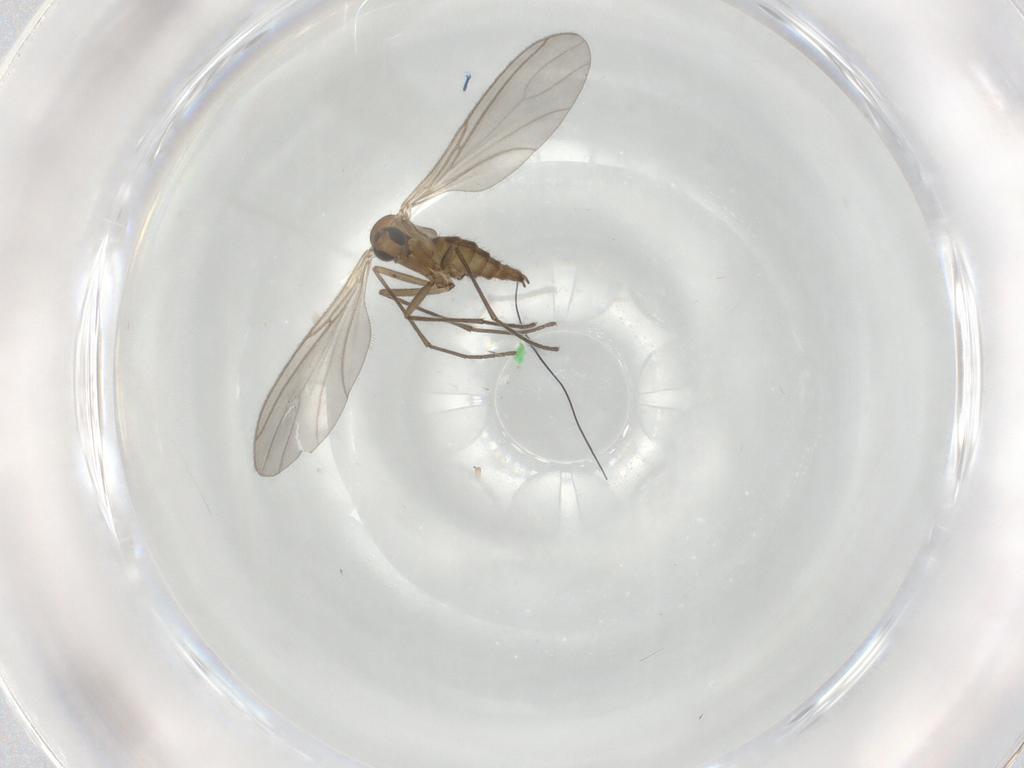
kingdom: Animalia
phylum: Arthropoda
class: Insecta
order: Diptera
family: Sciaridae
